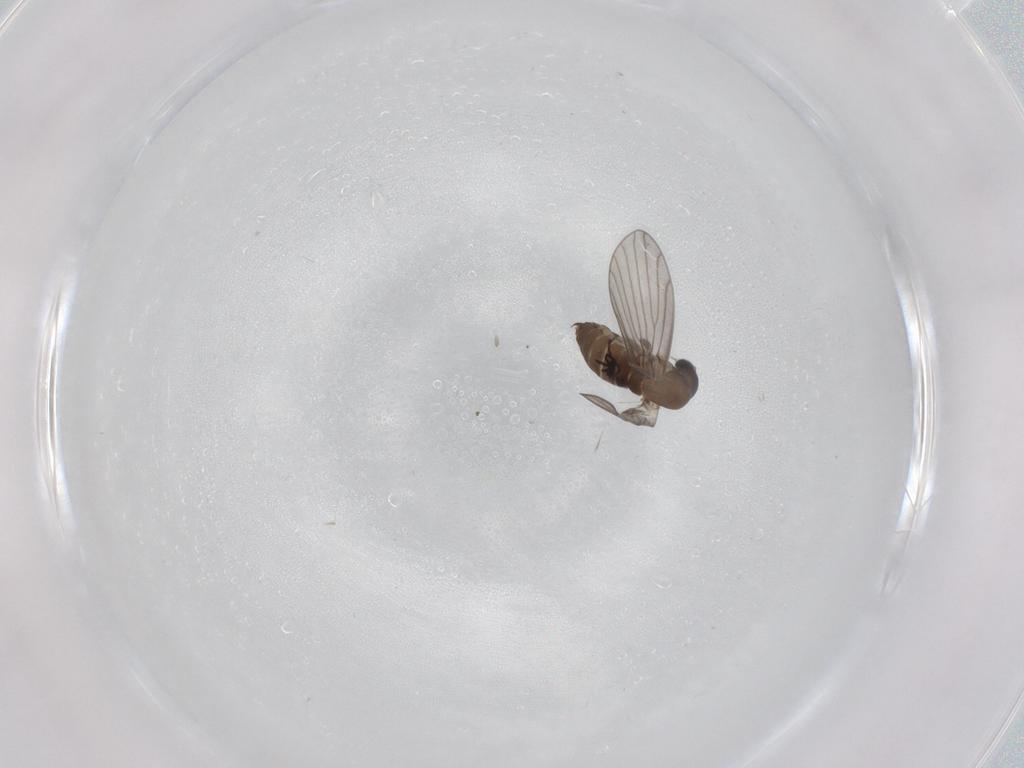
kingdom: Animalia
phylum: Arthropoda
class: Insecta
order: Diptera
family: Psychodidae
